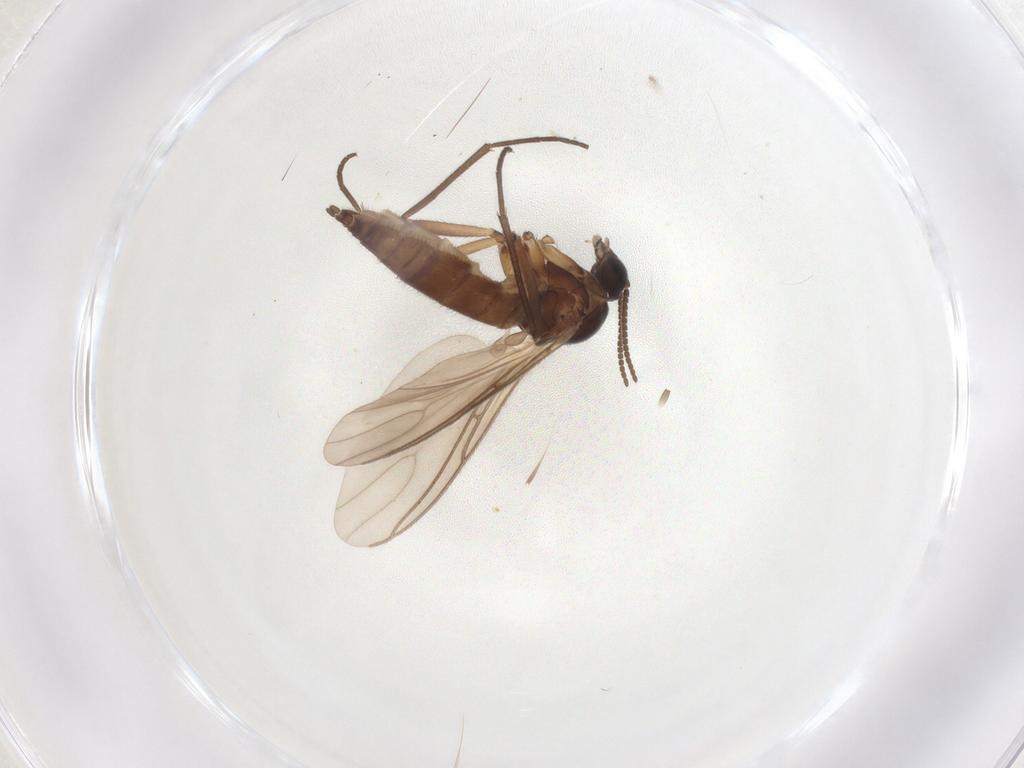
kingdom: Animalia
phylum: Arthropoda
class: Insecta
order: Diptera
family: Sciaridae
